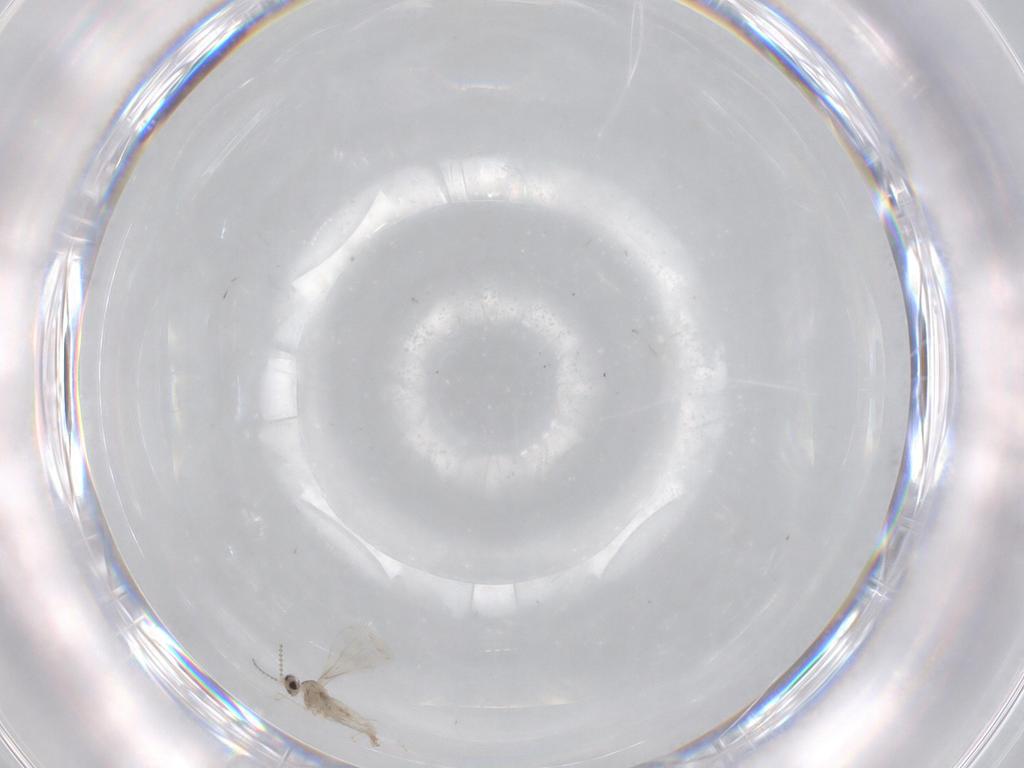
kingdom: Animalia
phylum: Arthropoda
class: Insecta
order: Diptera
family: Cecidomyiidae
